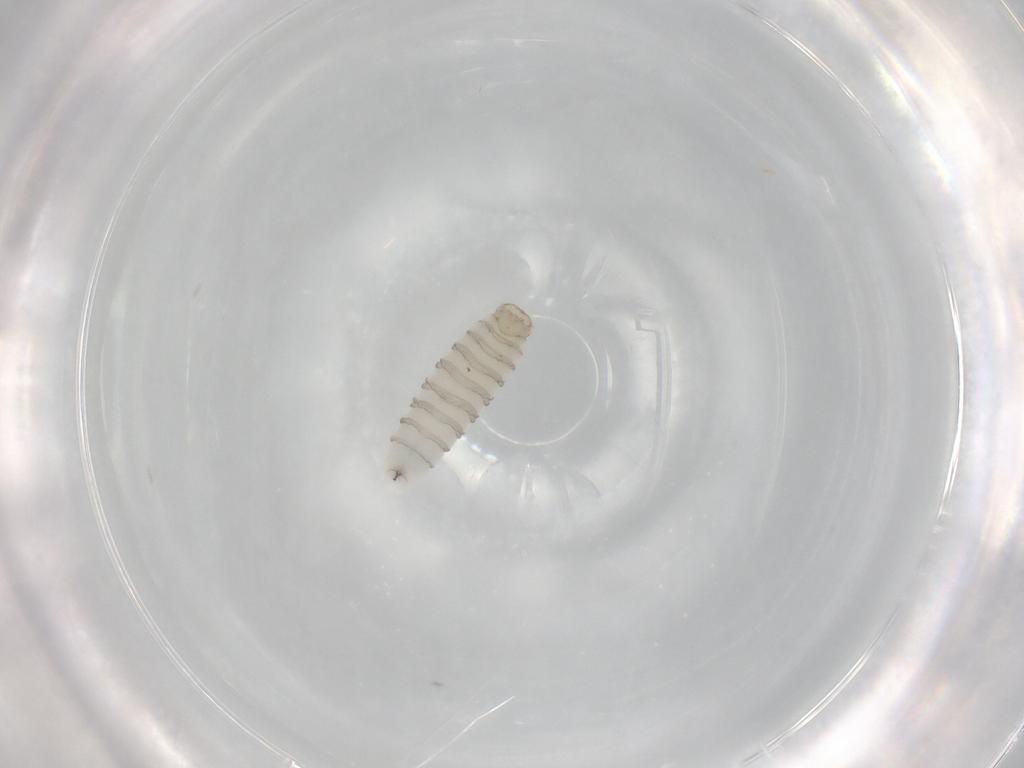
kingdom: Animalia
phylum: Arthropoda
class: Insecta
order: Diptera
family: Sarcophagidae
